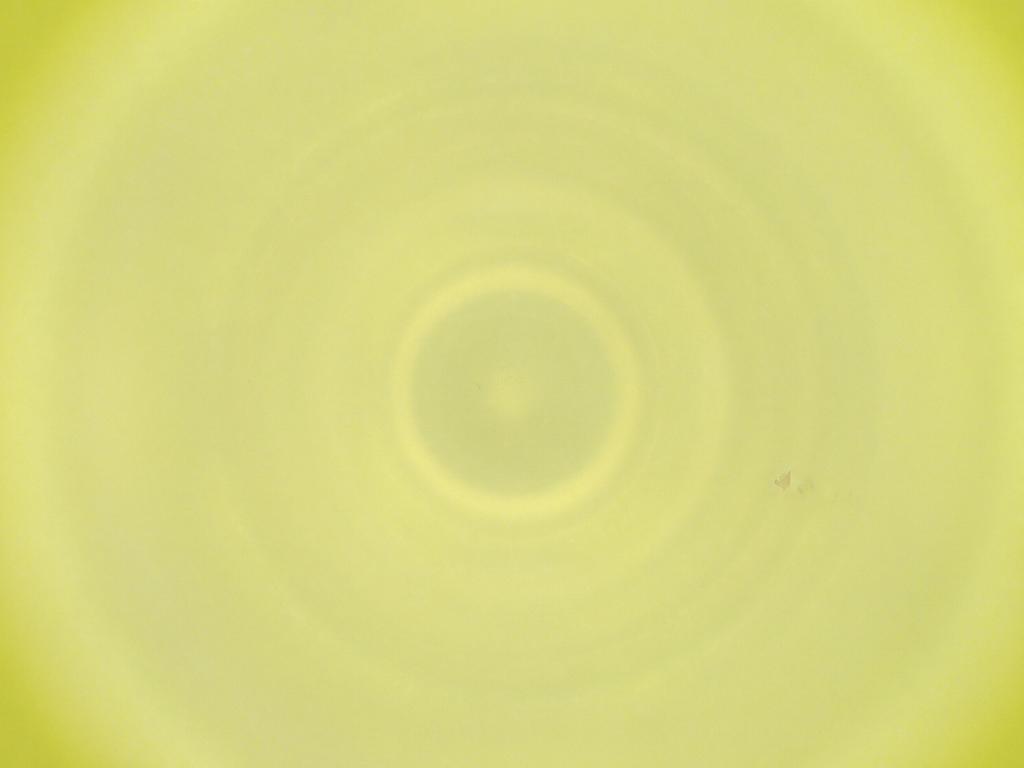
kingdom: Animalia
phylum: Arthropoda
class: Insecta
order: Diptera
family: Cecidomyiidae
